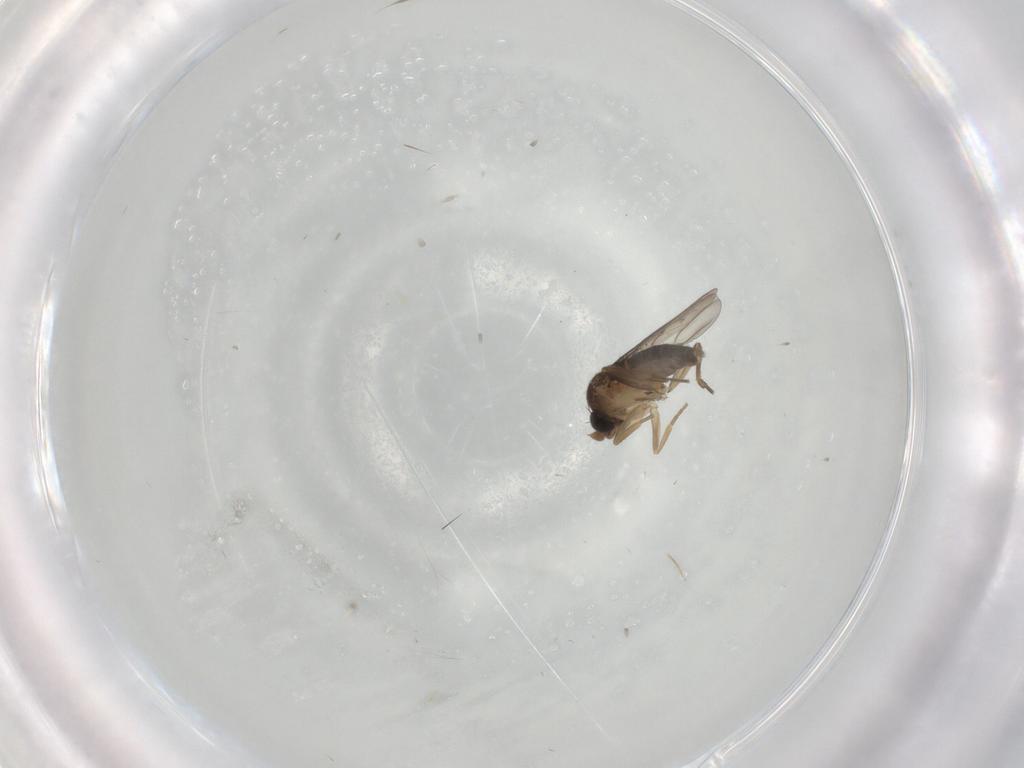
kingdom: Animalia
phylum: Arthropoda
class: Insecta
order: Diptera
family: Phoridae
